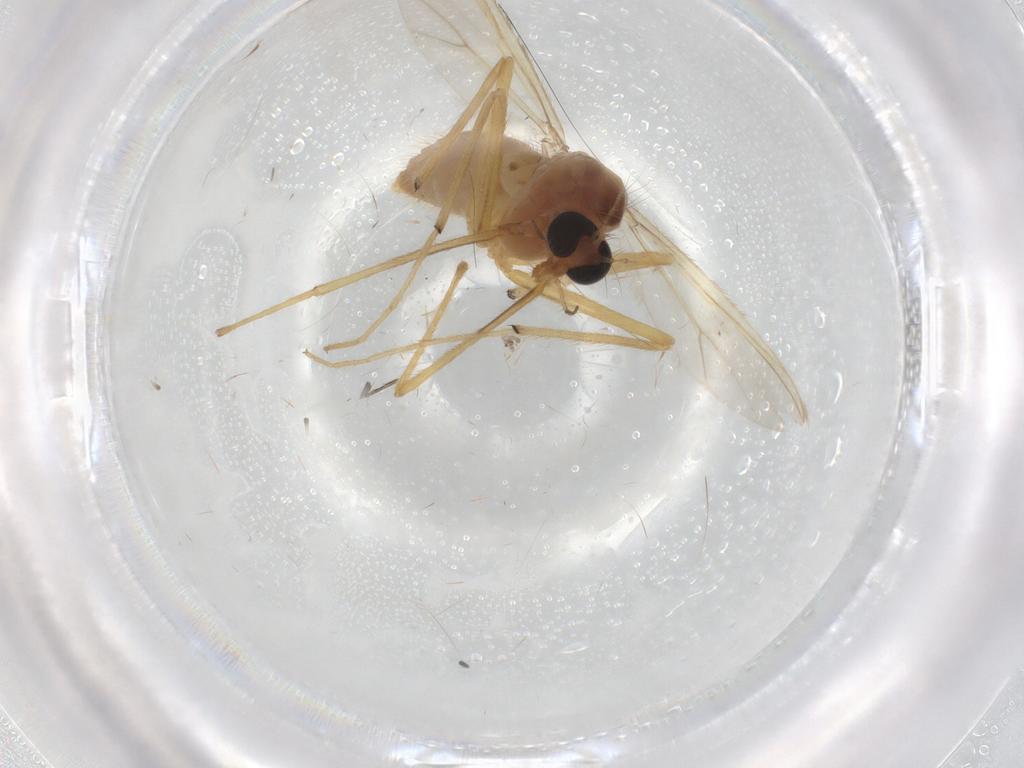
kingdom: Animalia
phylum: Arthropoda
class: Insecta
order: Diptera
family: Chironomidae
